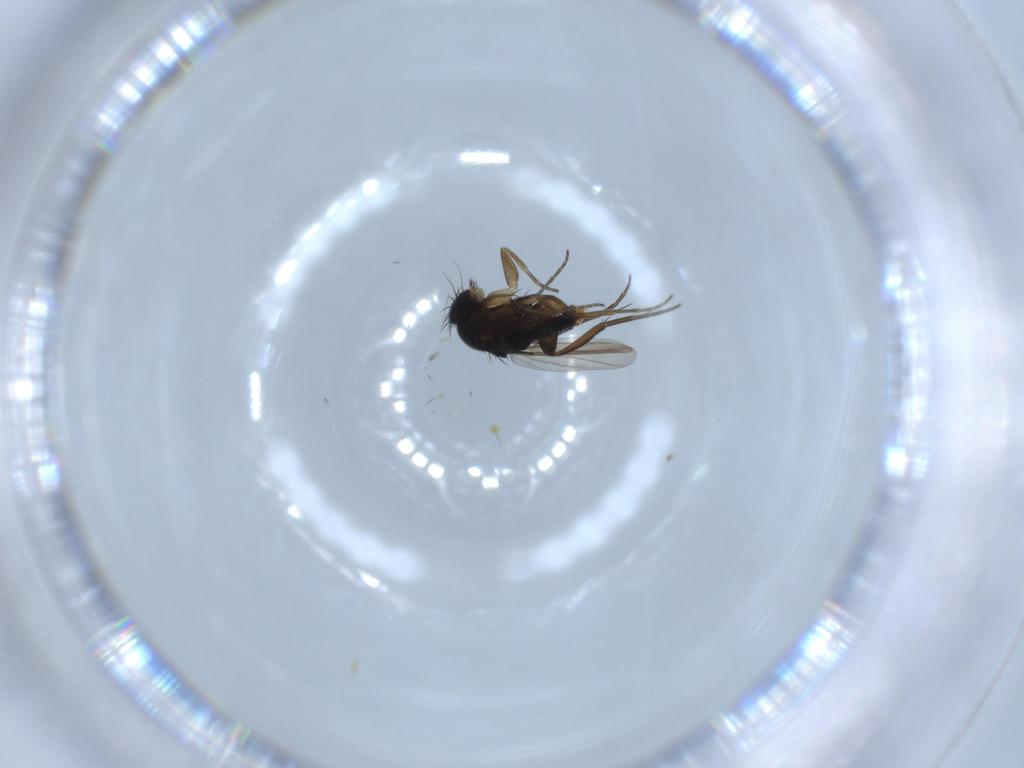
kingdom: Animalia
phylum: Arthropoda
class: Insecta
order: Diptera
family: Phoridae
